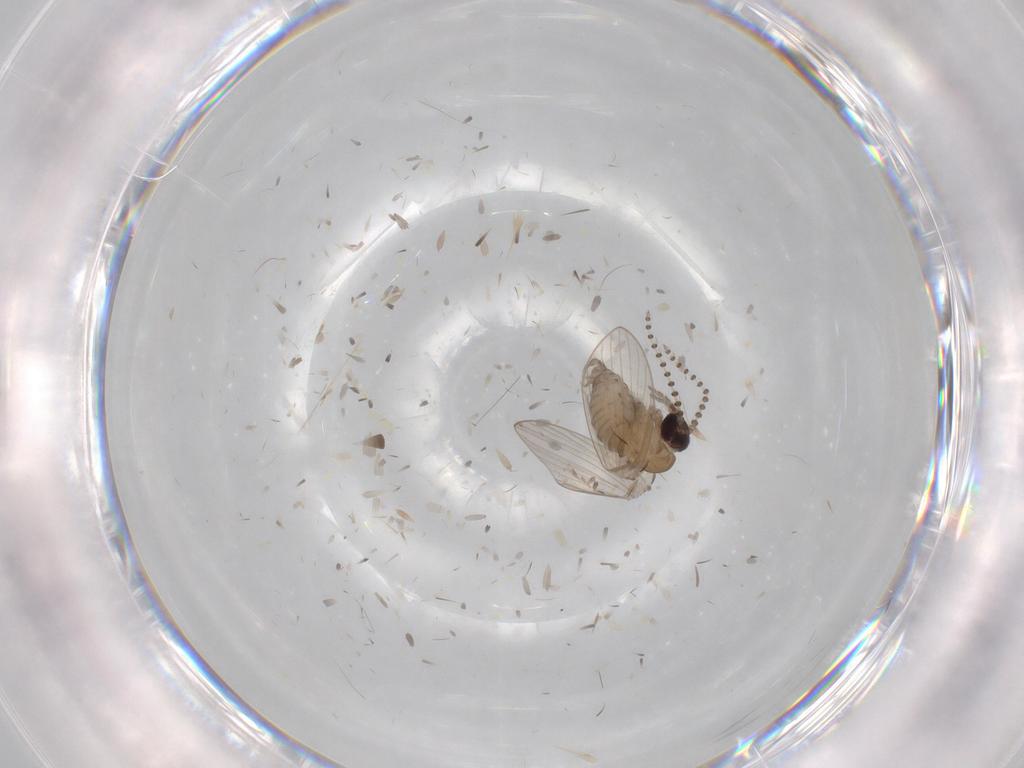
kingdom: Animalia
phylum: Arthropoda
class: Insecta
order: Diptera
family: Psychodidae
